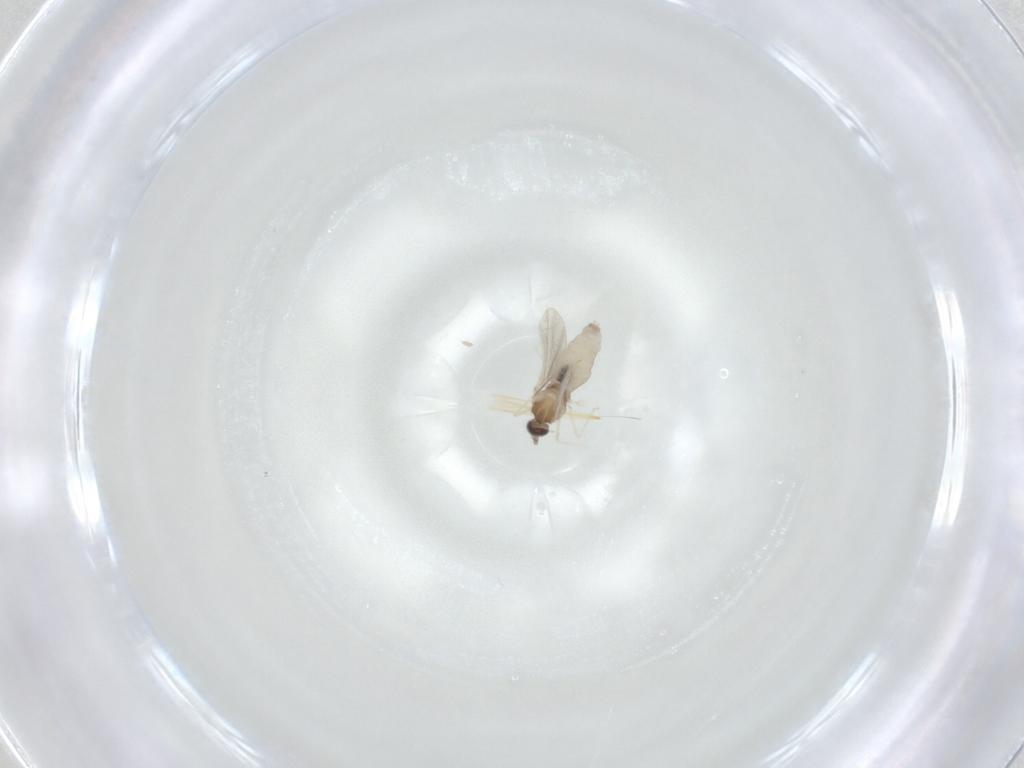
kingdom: Animalia
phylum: Arthropoda
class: Insecta
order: Diptera
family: Cecidomyiidae
